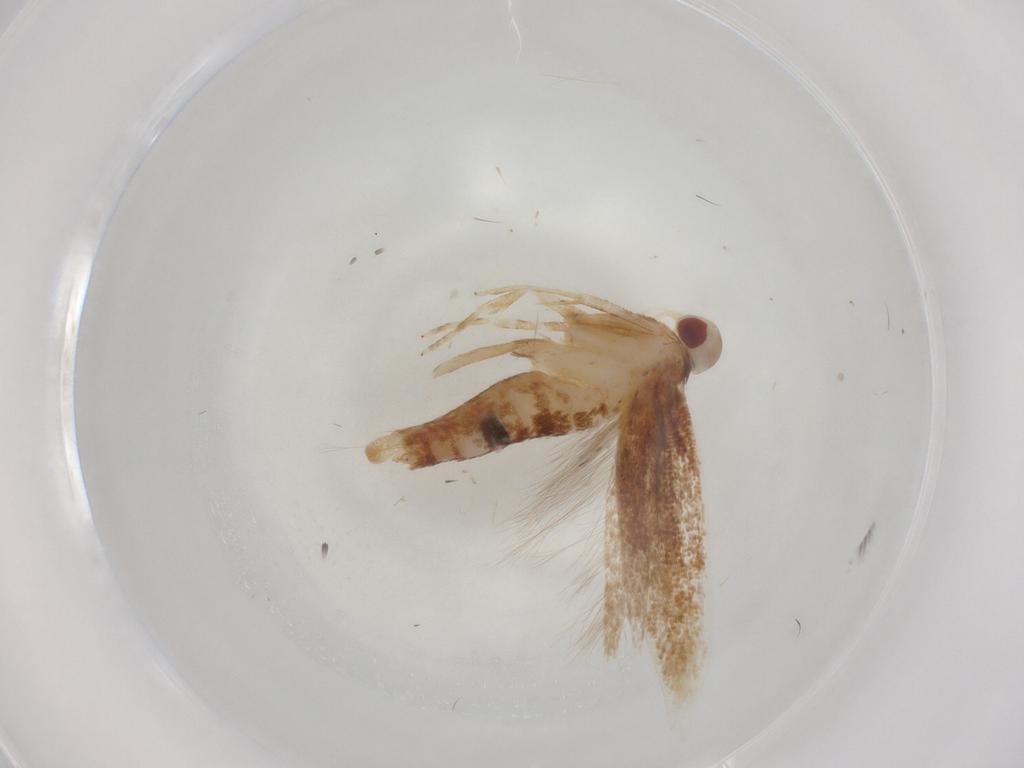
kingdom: Animalia
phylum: Arthropoda
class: Insecta
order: Lepidoptera
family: Cosmopterigidae
